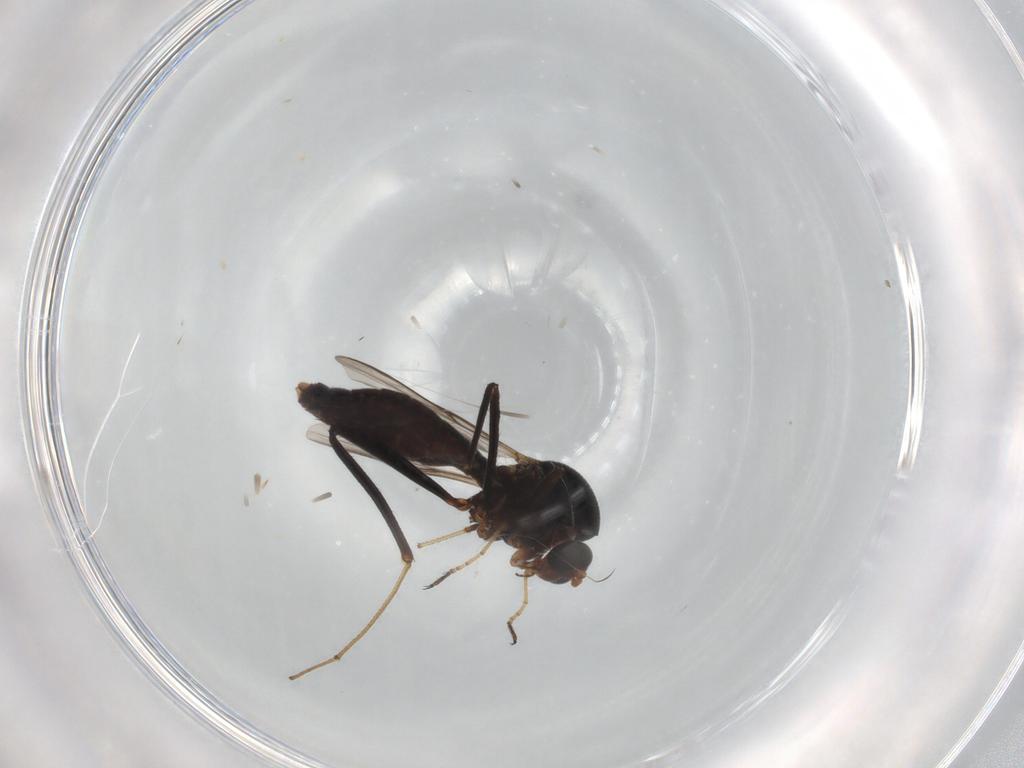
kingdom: Animalia
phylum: Arthropoda
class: Insecta
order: Diptera
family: Ceratopogonidae
